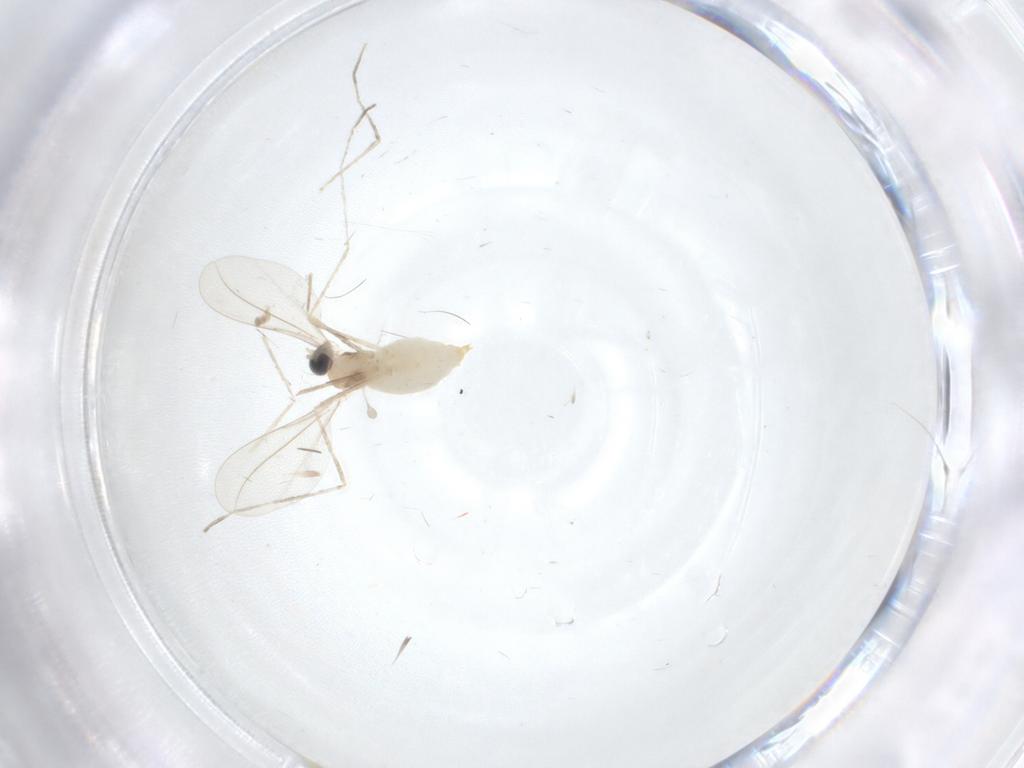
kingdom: Animalia
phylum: Arthropoda
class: Insecta
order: Diptera
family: Cecidomyiidae
